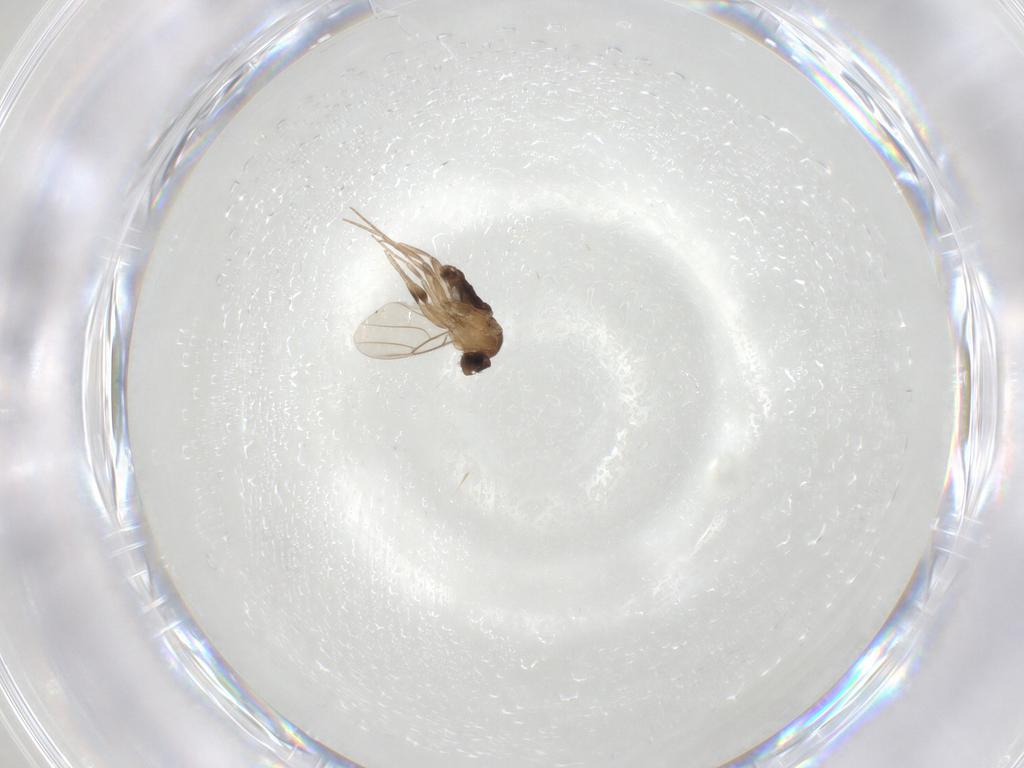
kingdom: Animalia
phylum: Arthropoda
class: Insecta
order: Diptera
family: Phoridae
